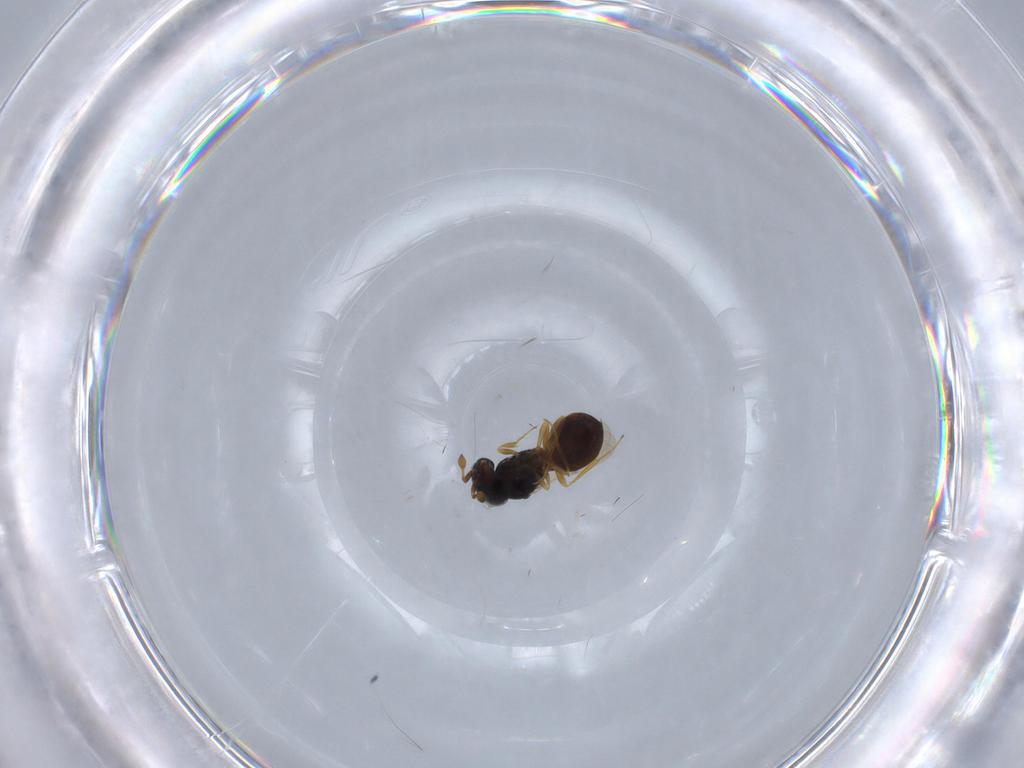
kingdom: Animalia
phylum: Arthropoda
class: Insecta
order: Hymenoptera
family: Scelionidae
